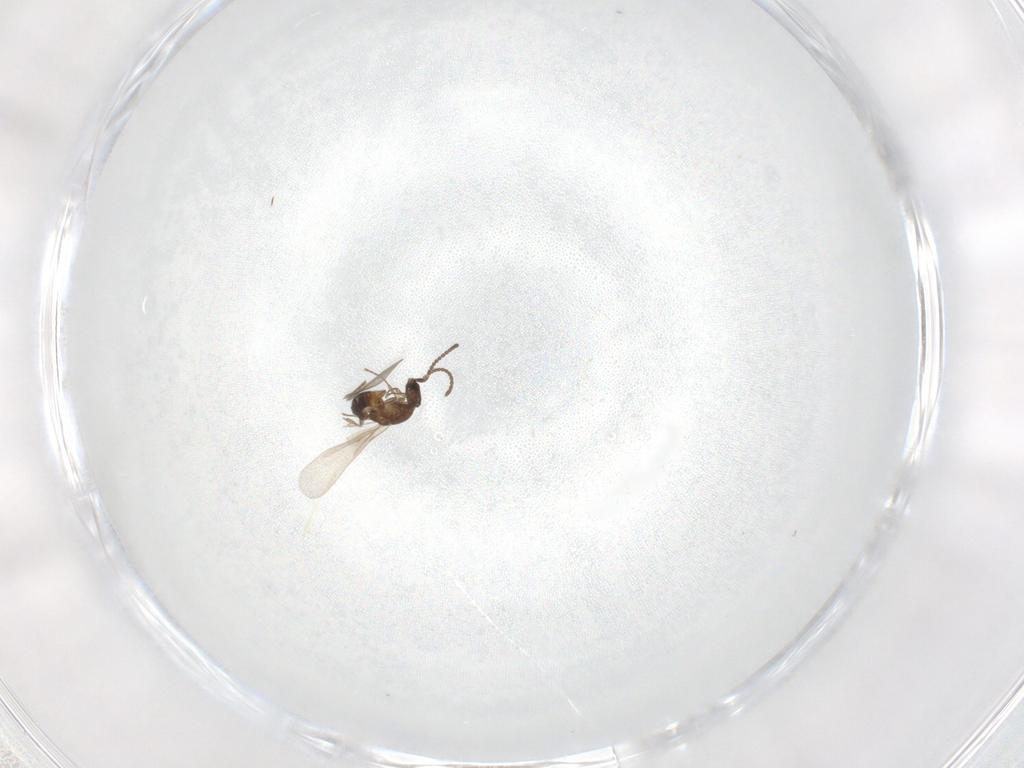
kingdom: Animalia
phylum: Arthropoda
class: Insecta
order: Hymenoptera
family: Formicidae
